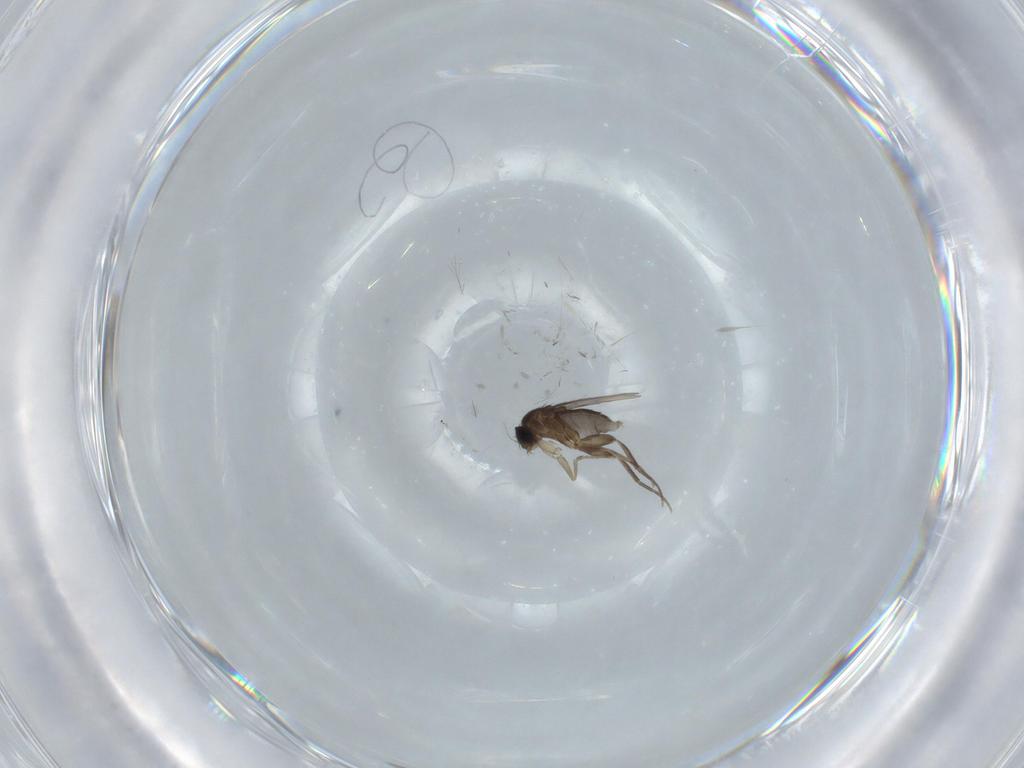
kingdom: Animalia
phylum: Arthropoda
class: Insecta
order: Diptera
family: Phoridae
